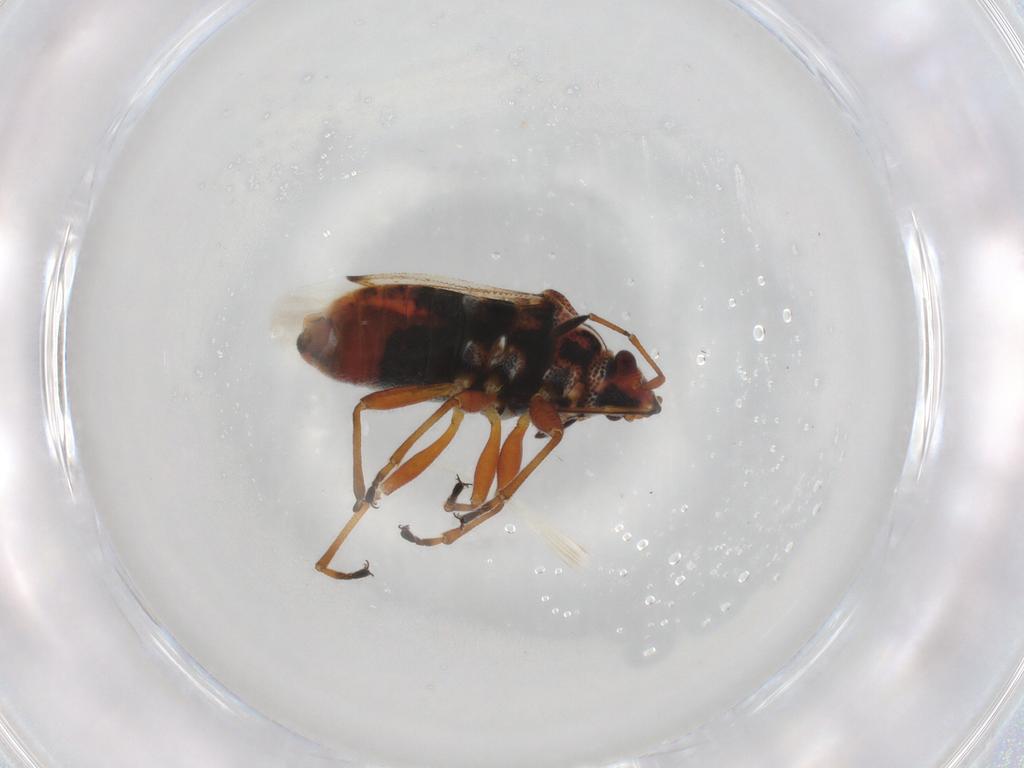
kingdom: Animalia
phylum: Arthropoda
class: Insecta
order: Hemiptera
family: Lygaeidae
